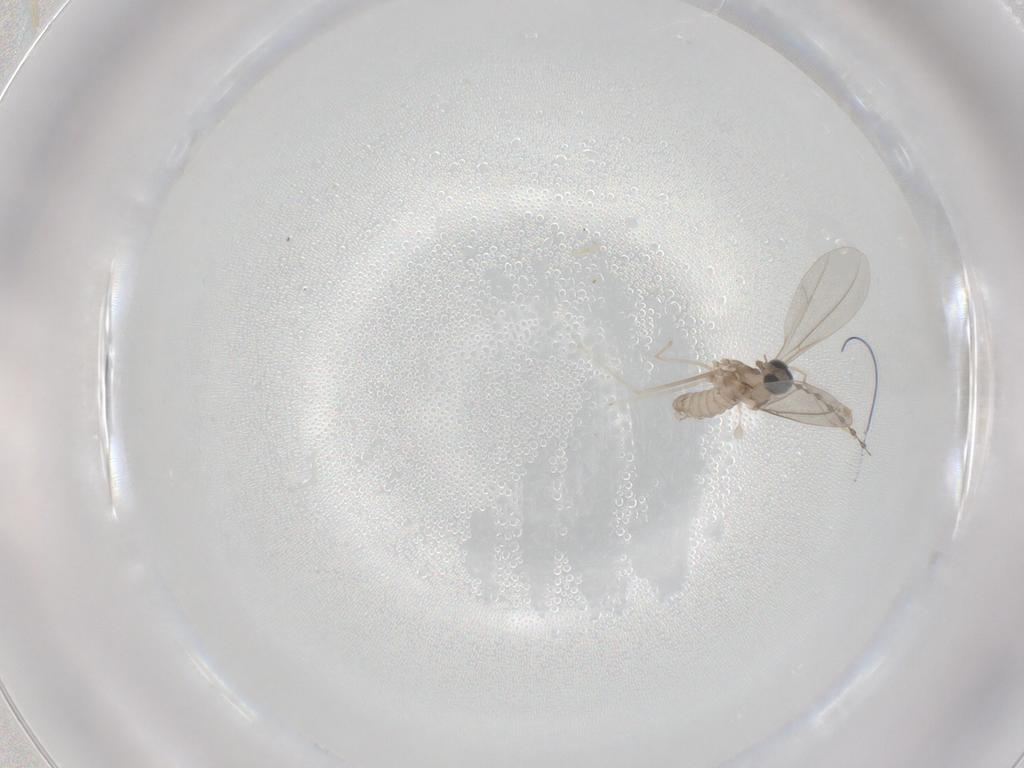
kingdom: Animalia
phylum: Arthropoda
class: Insecta
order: Diptera
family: Cecidomyiidae
